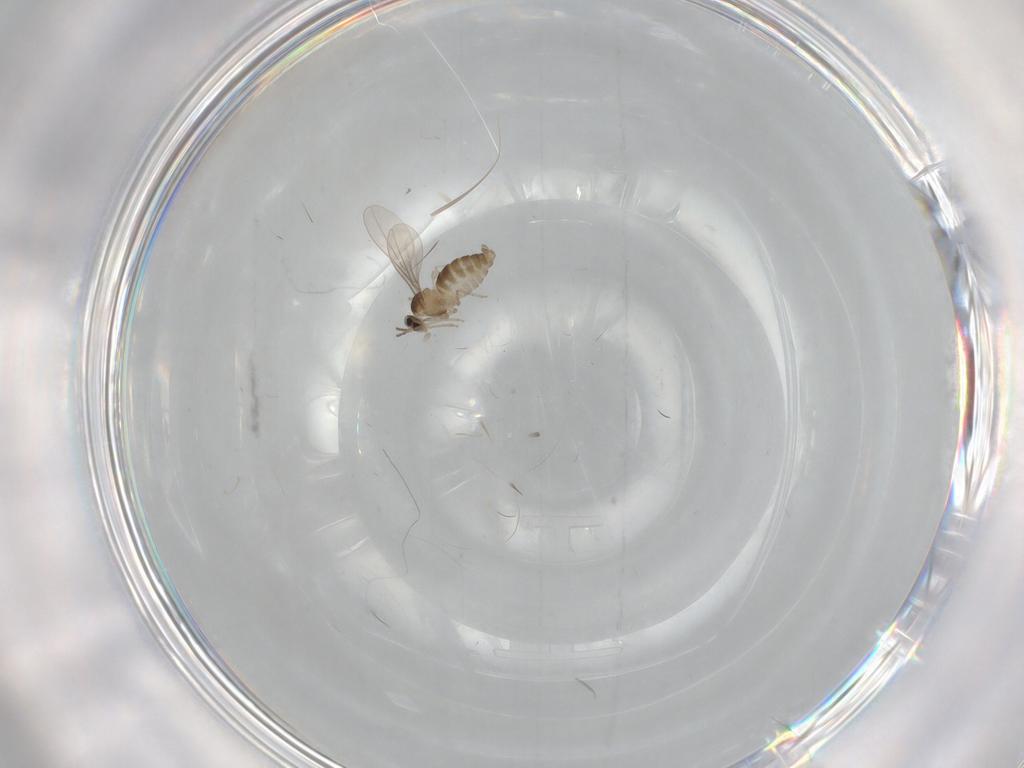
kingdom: Animalia
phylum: Arthropoda
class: Insecta
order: Diptera
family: Cecidomyiidae
